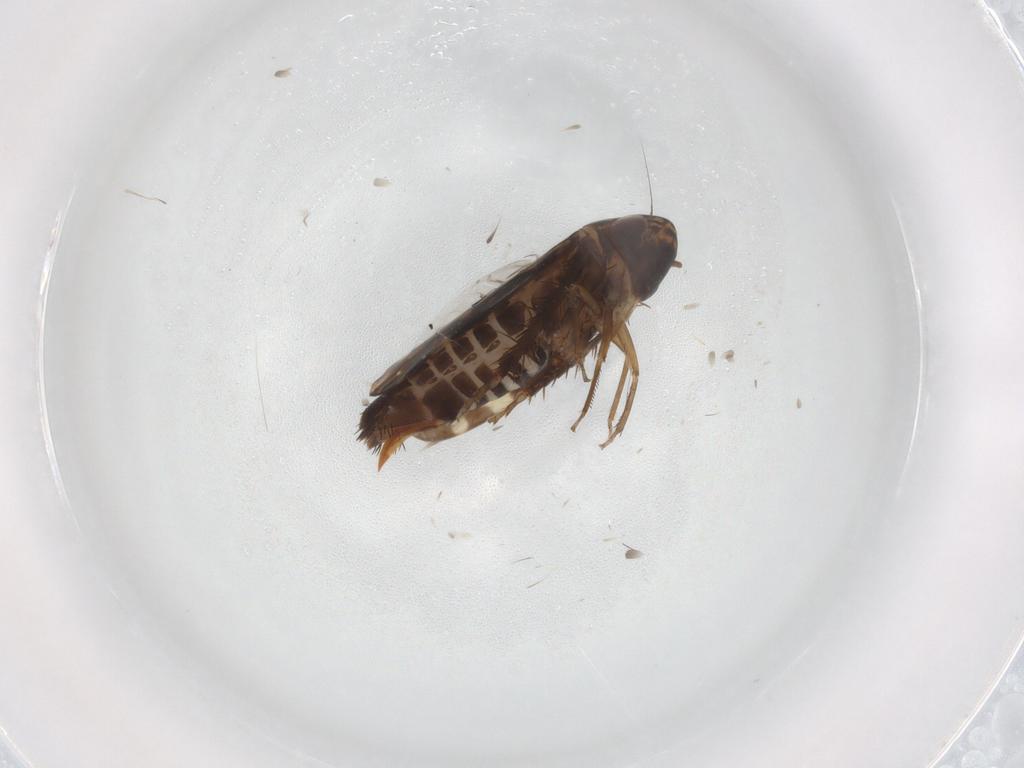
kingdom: Animalia
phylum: Arthropoda
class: Insecta
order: Hemiptera
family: Cicadellidae
